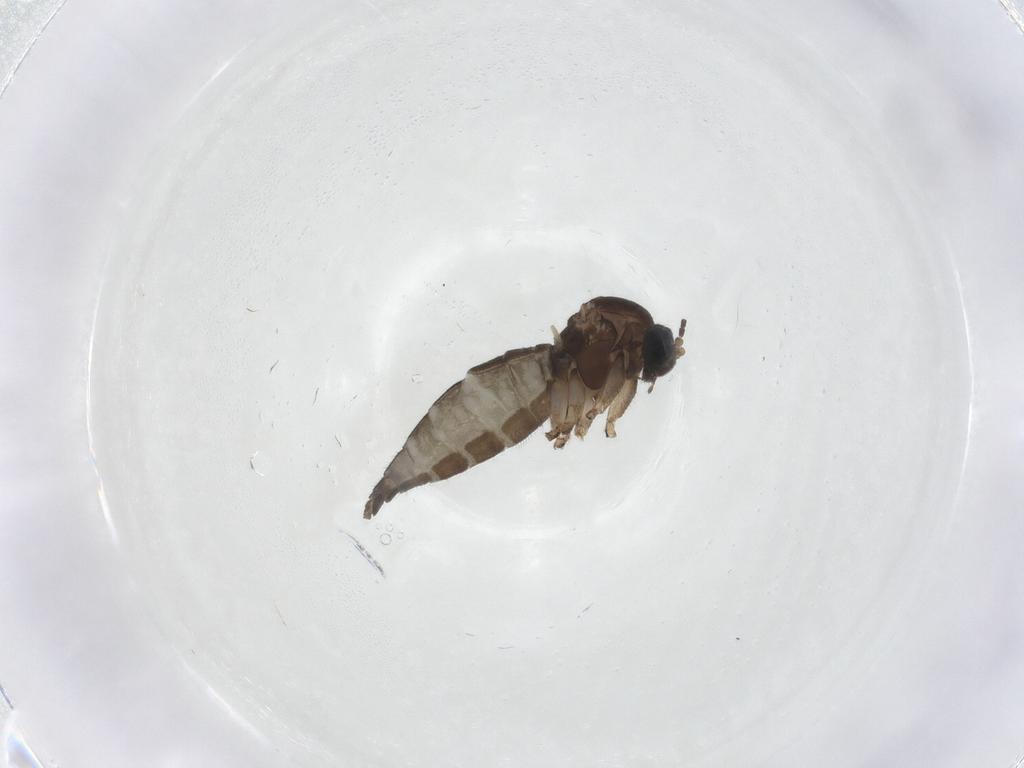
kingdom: Animalia
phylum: Arthropoda
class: Insecta
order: Diptera
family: Sciaridae
